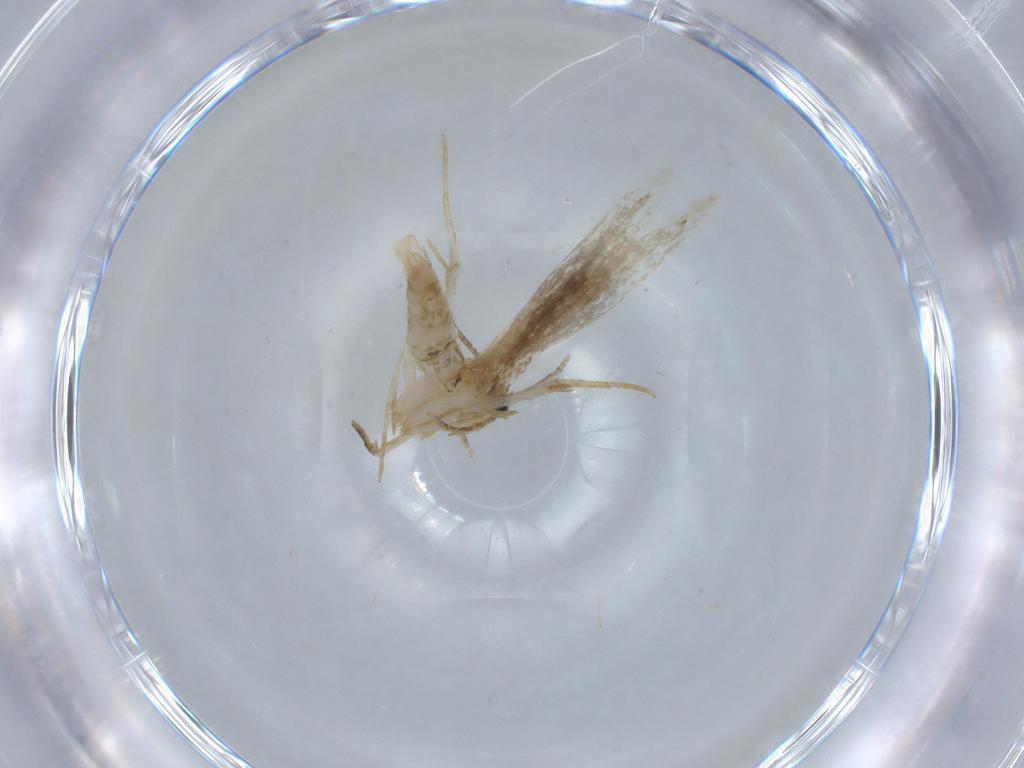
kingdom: Animalia
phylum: Arthropoda
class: Insecta
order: Lepidoptera
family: Tineidae
